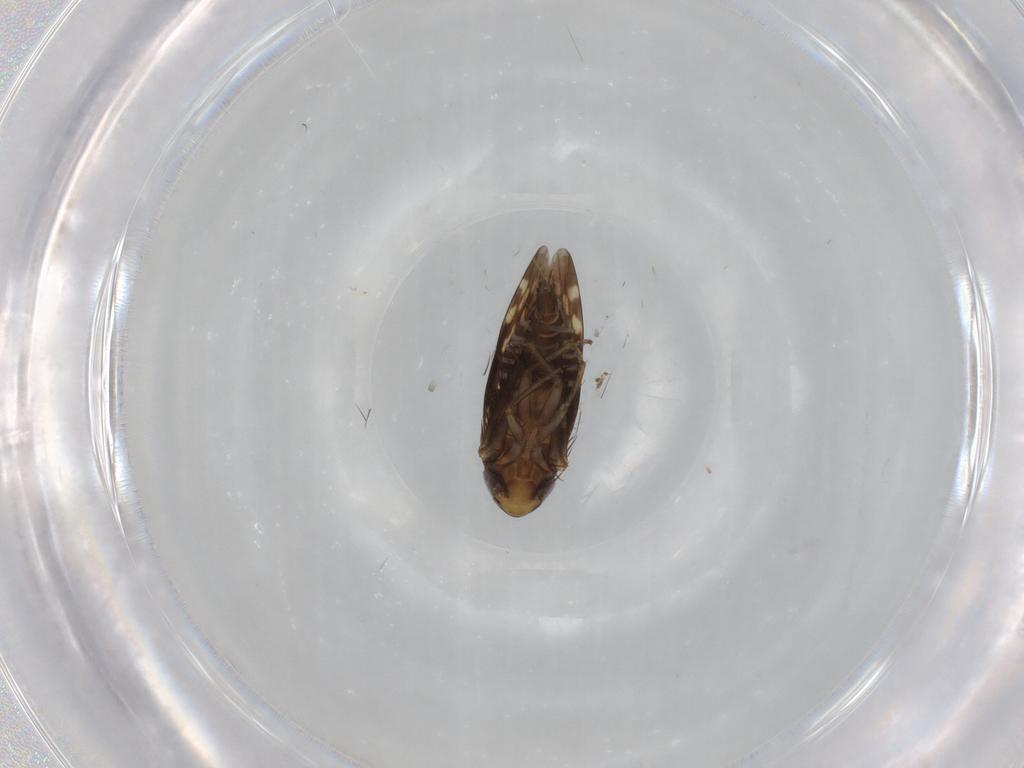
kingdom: Animalia
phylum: Arthropoda
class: Insecta
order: Hemiptera
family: Cicadellidae
